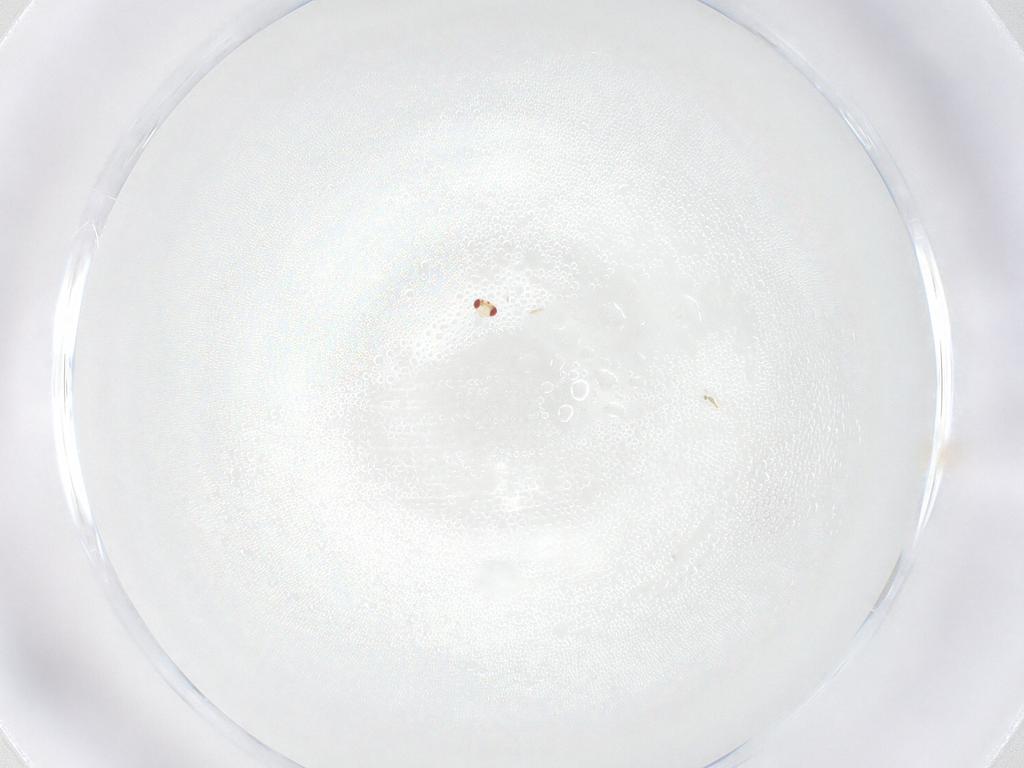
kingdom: Animalia
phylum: Arthropoda
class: Insecta
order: Hymenoptera
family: Trichogrammatidae
